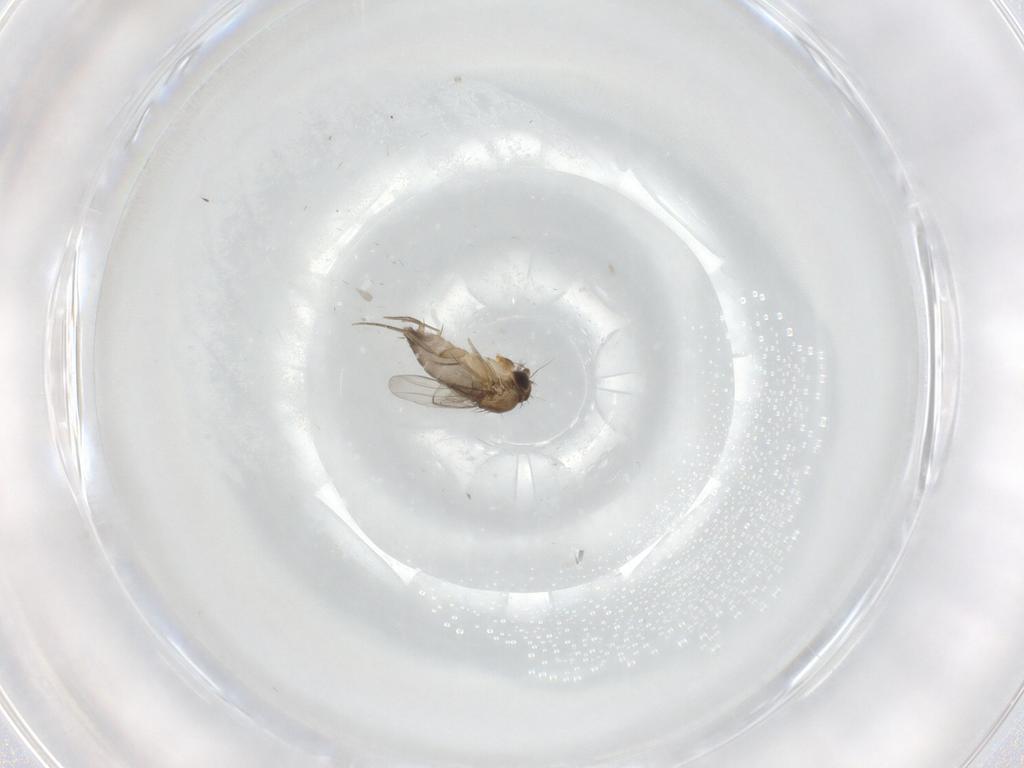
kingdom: Animalia
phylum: Arthropoda
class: Insecta
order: Diptera
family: Phoridae
